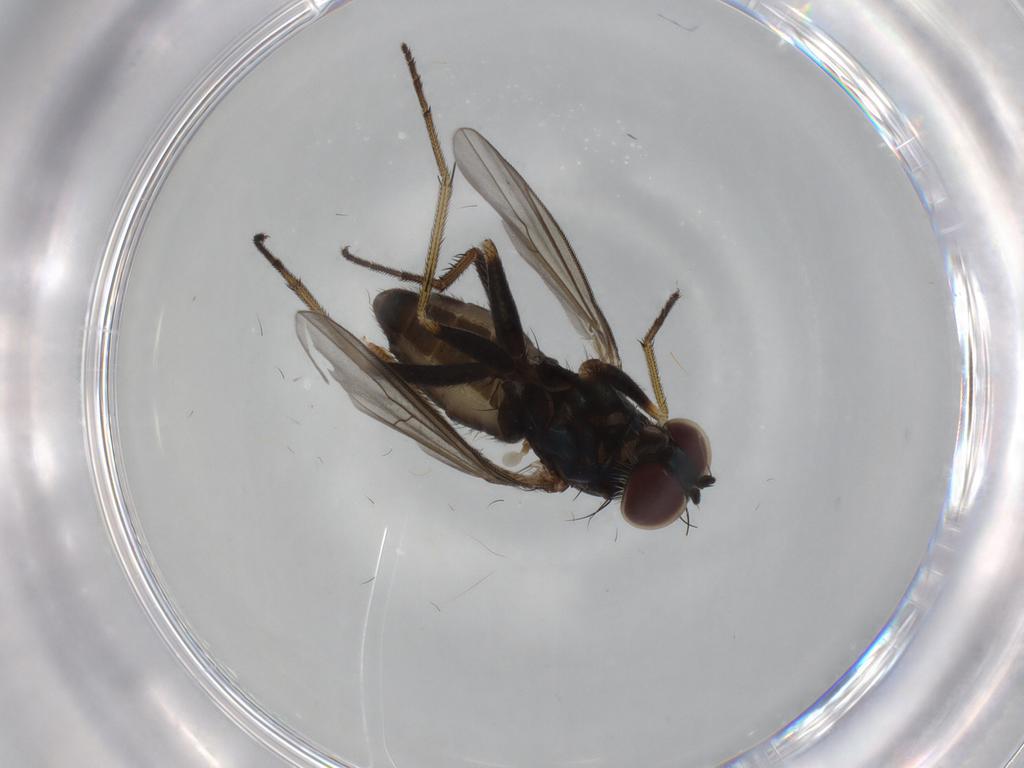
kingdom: Animalia
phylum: Arthropoda
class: Insecta
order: Diptera
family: Dolichopodidae
